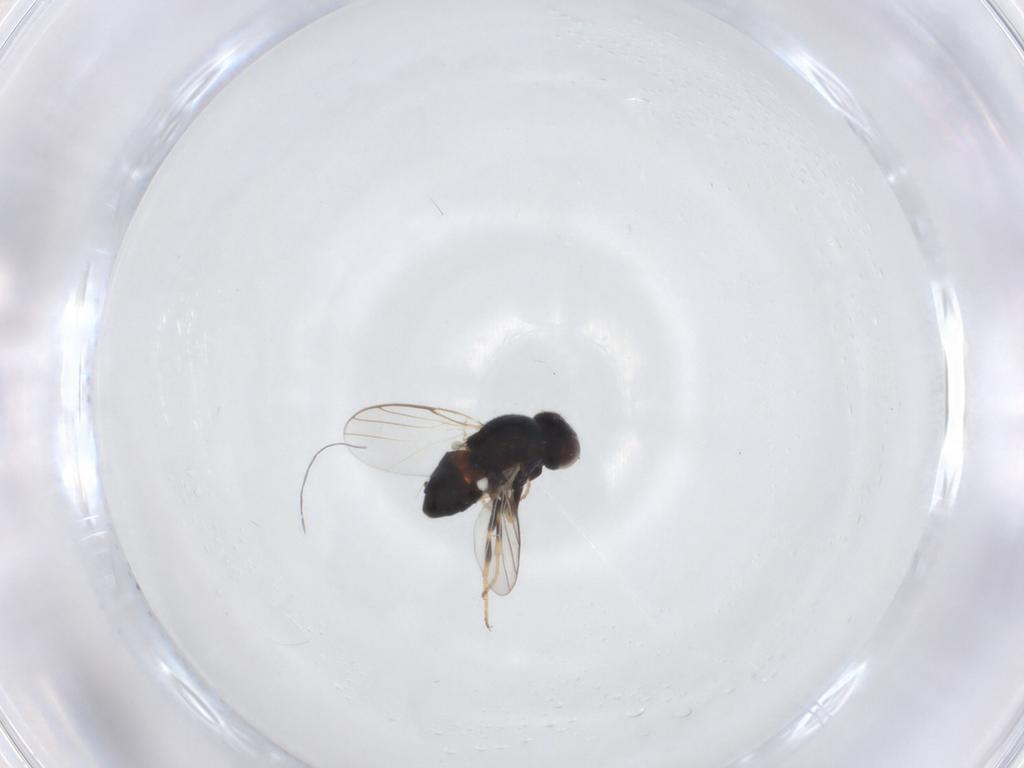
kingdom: Animalia
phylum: Arthropoda
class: Insecta
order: Diptera
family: Chloropidae
